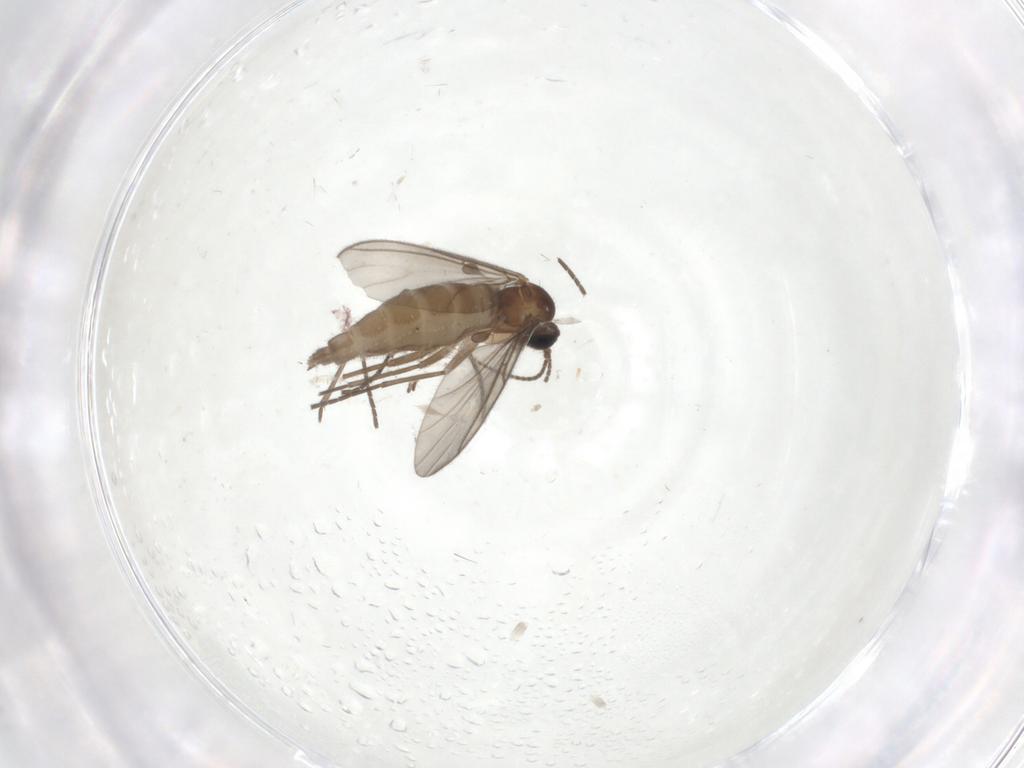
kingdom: Animalia
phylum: Arthropoda
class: Insecta
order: Diptera
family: Sciaridae
